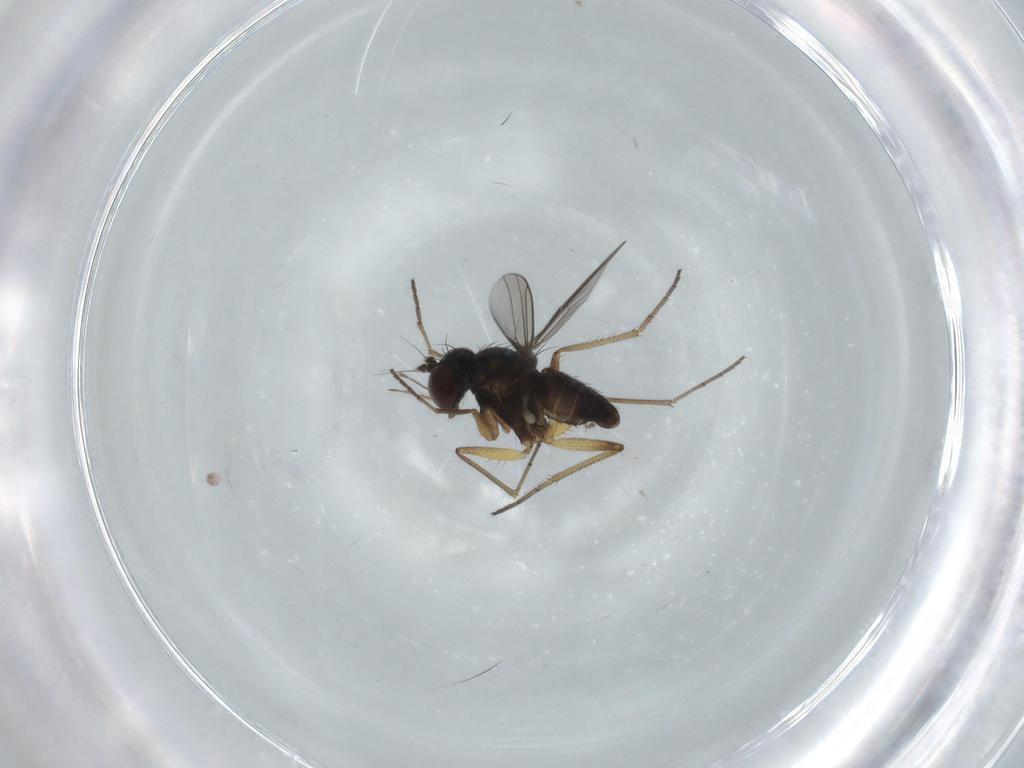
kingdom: Animalia
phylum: Arthropoda
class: Insecta
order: Diptera
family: Dolichopodidae
